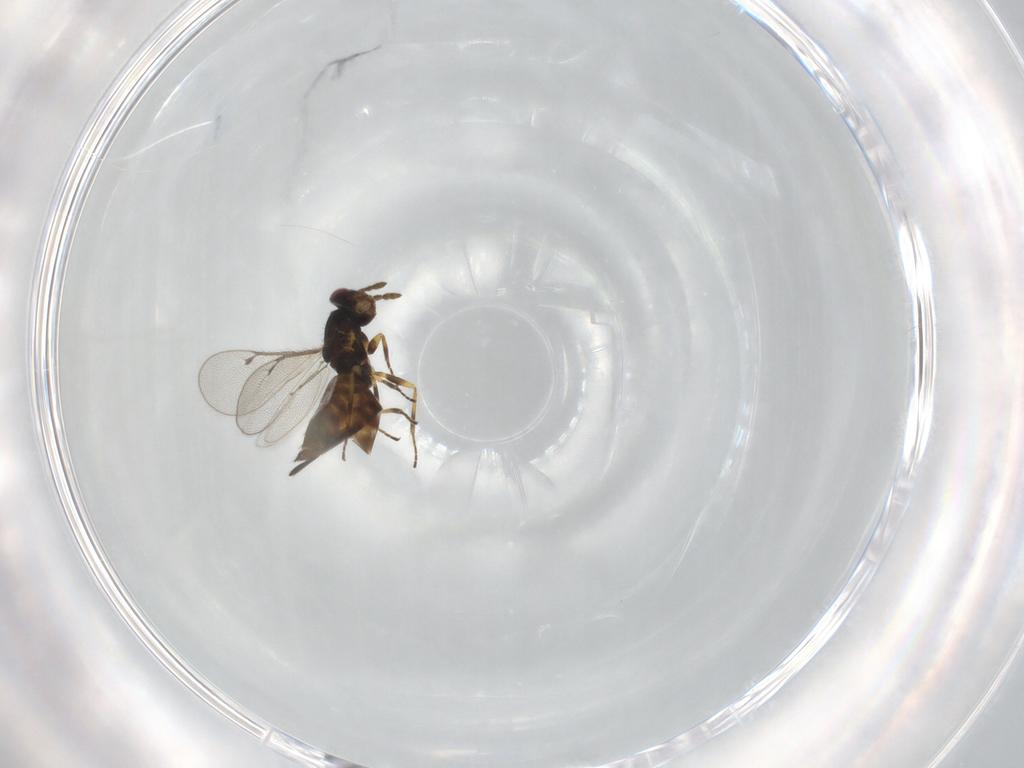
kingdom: Animalia
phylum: Arthropoda
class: Insecta
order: Hymenoptera
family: Eulophidae
